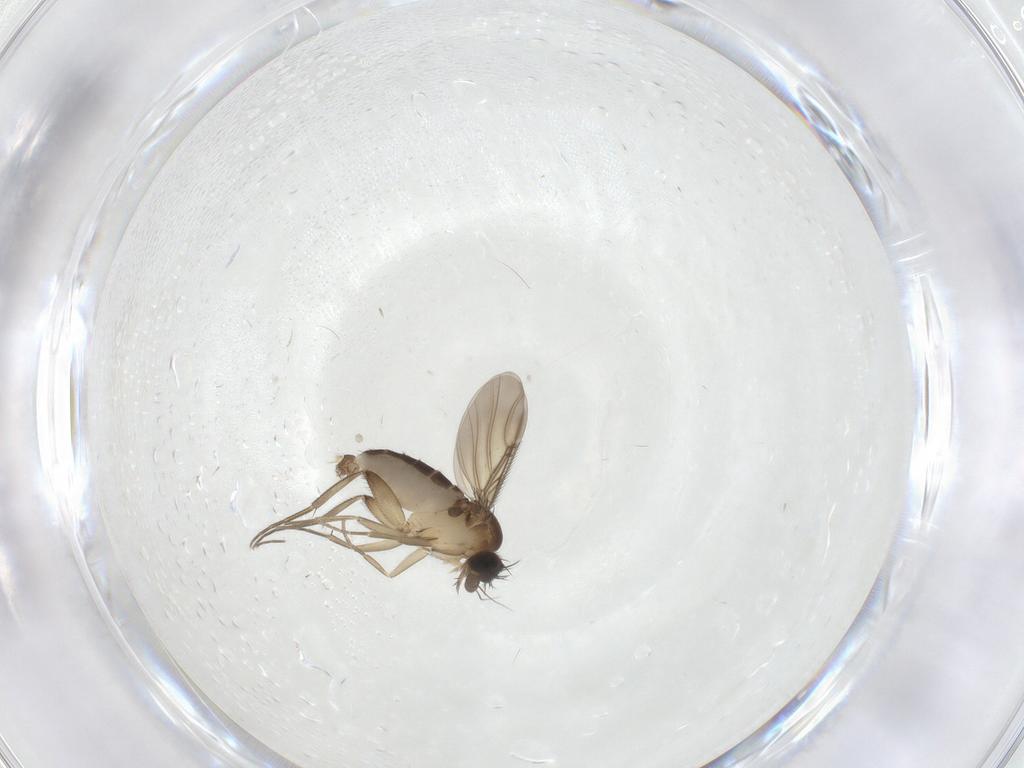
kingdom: Animalia
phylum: Arthropoda
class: Insecta
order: Diptera
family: Phoridae
